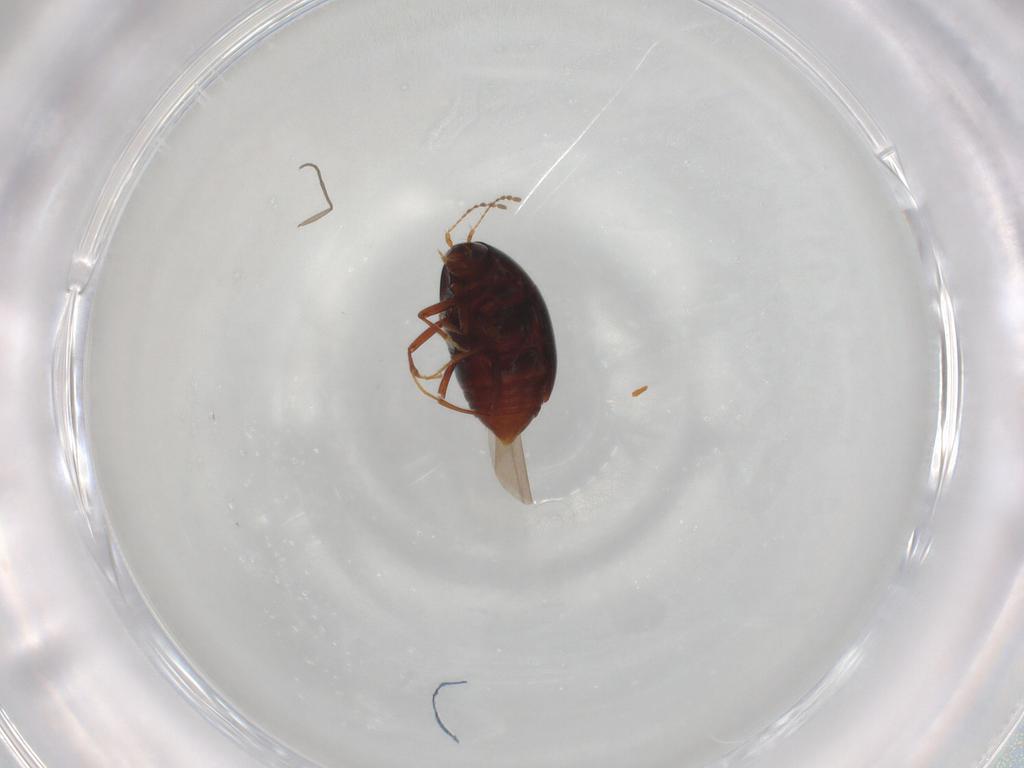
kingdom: Animalia
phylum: Arthropoda
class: Insecta
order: Coleoptera
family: Staphylinidae
